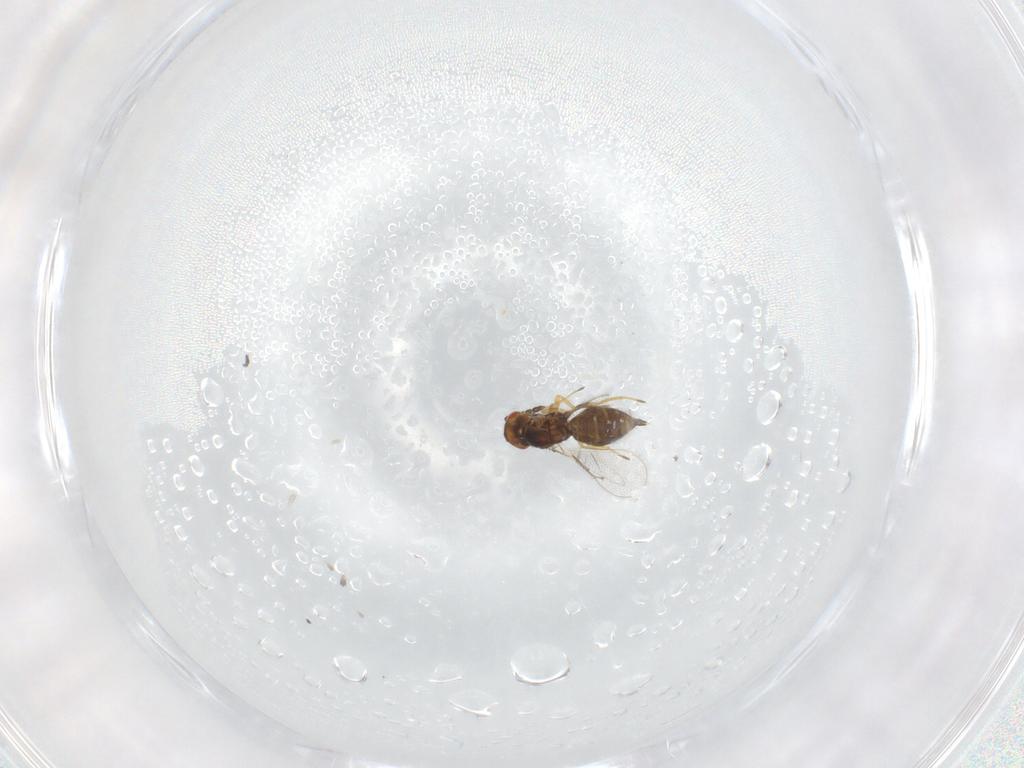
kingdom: Animalia
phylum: Arthropoda
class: Insecta
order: Hymenoptera
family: Eulophidae
